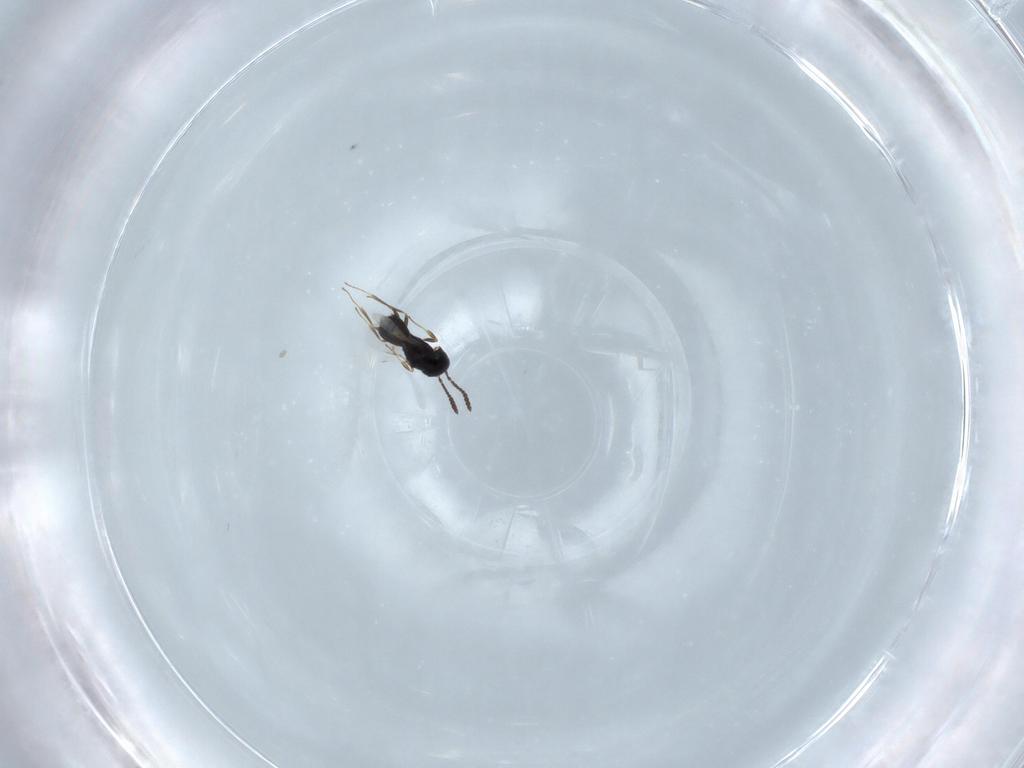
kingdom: Animalia
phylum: Arthropoda
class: Insecta
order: Hymenoptera
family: Scelionidae
